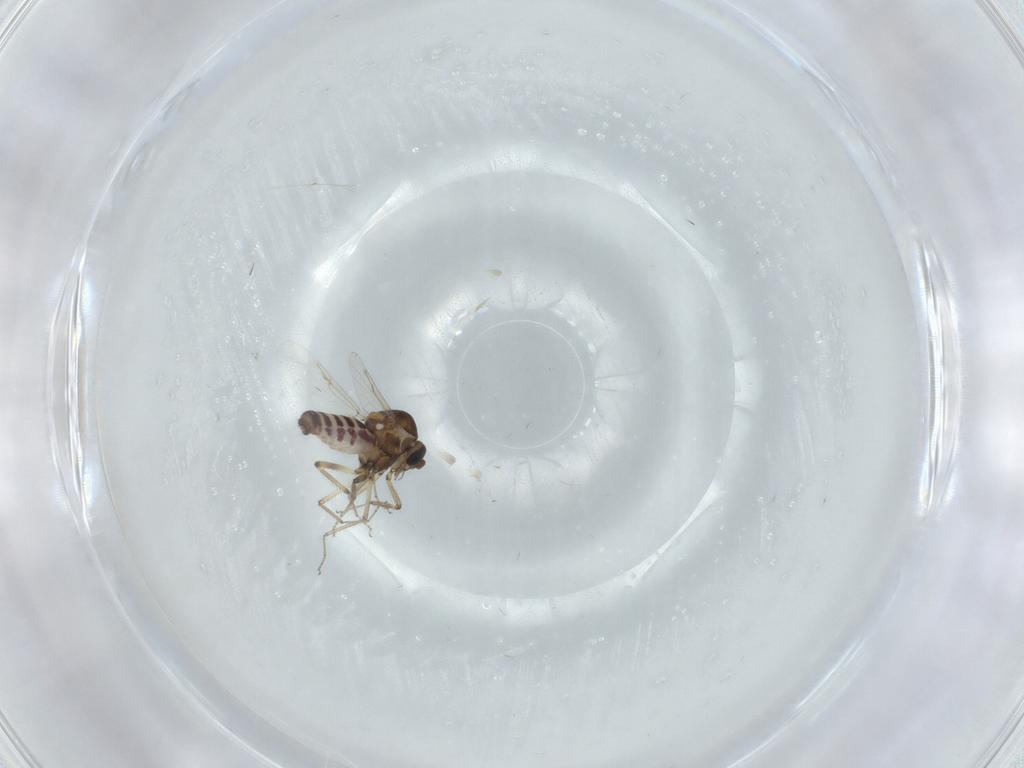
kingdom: Animalia
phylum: Arthropoda
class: Insecta
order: Diptera
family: Ceratopogonidae
